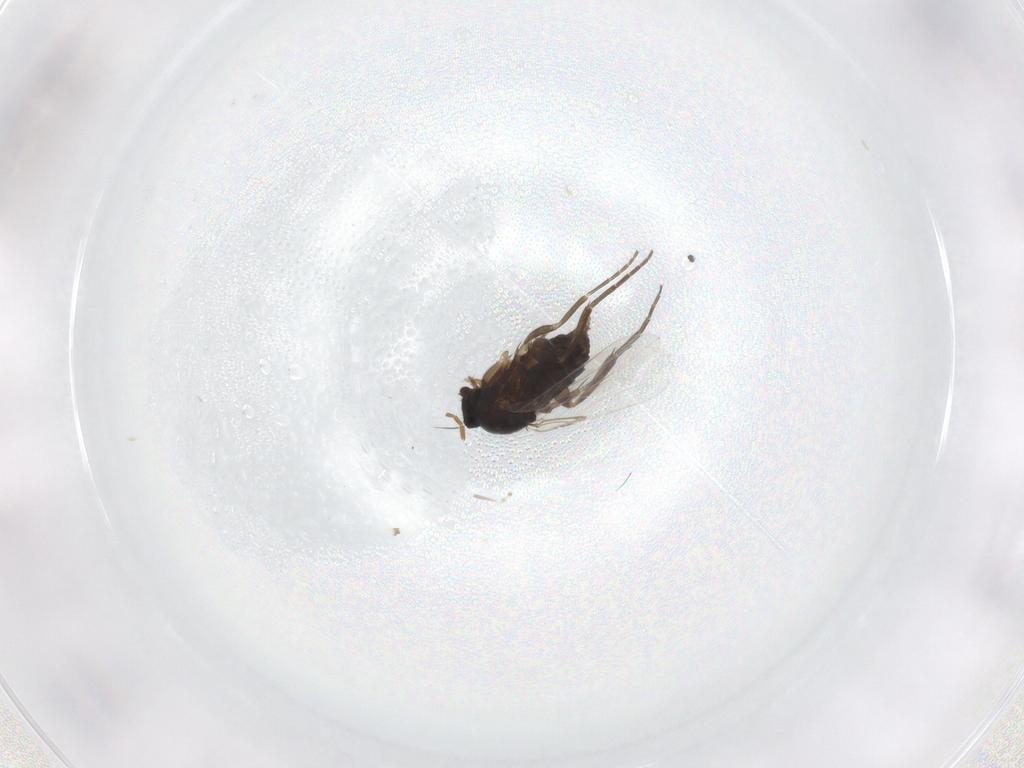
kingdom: Animalia
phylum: Arthropoda
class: Insecta
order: Diptera
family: Phoridae
